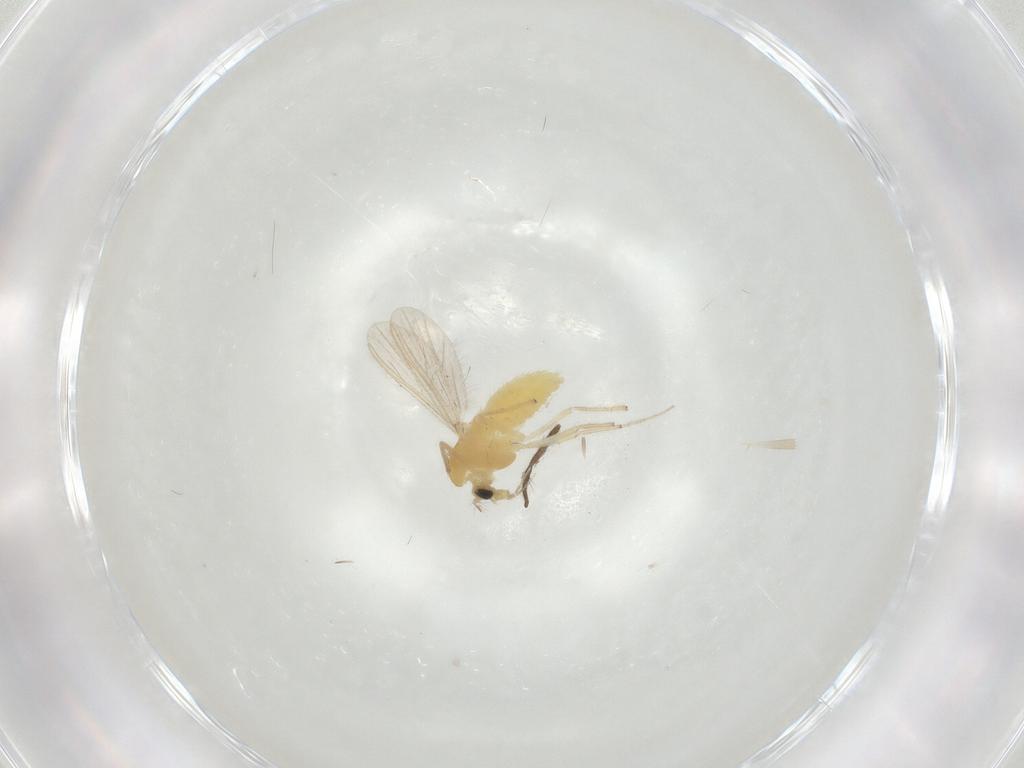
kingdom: Animalia
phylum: Arthropoda
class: Insecta
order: Diptera
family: Chironomidae
